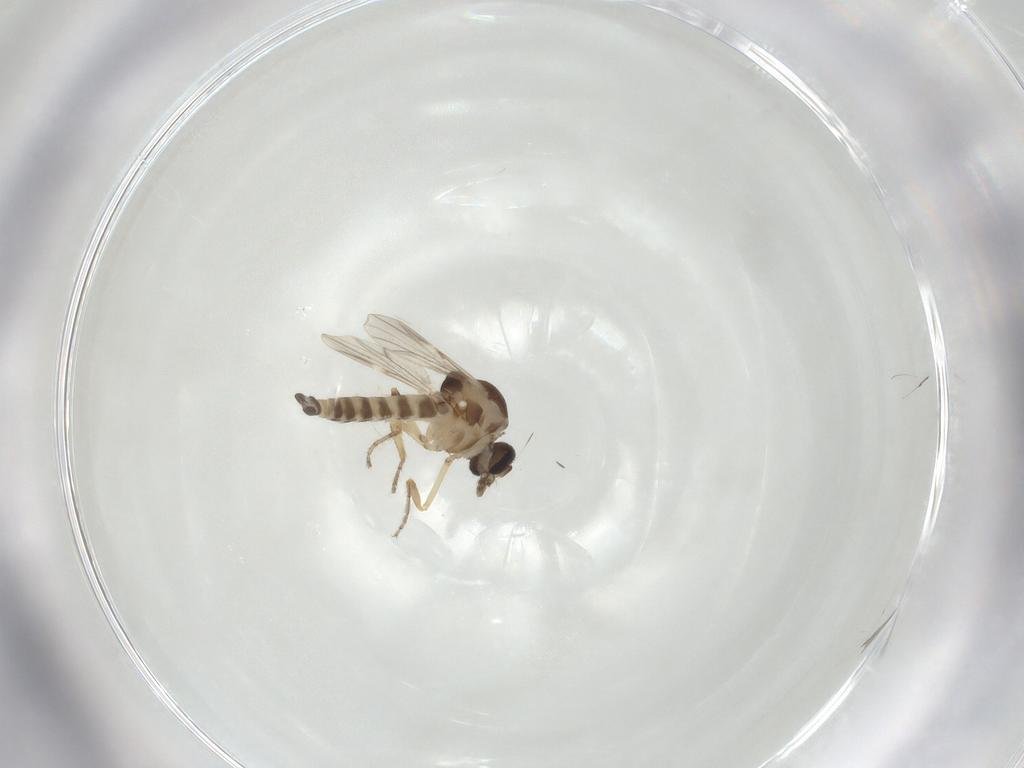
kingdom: Animalia
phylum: Arthropoda
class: Insecta
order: Diptera
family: Ceratopogonidae
